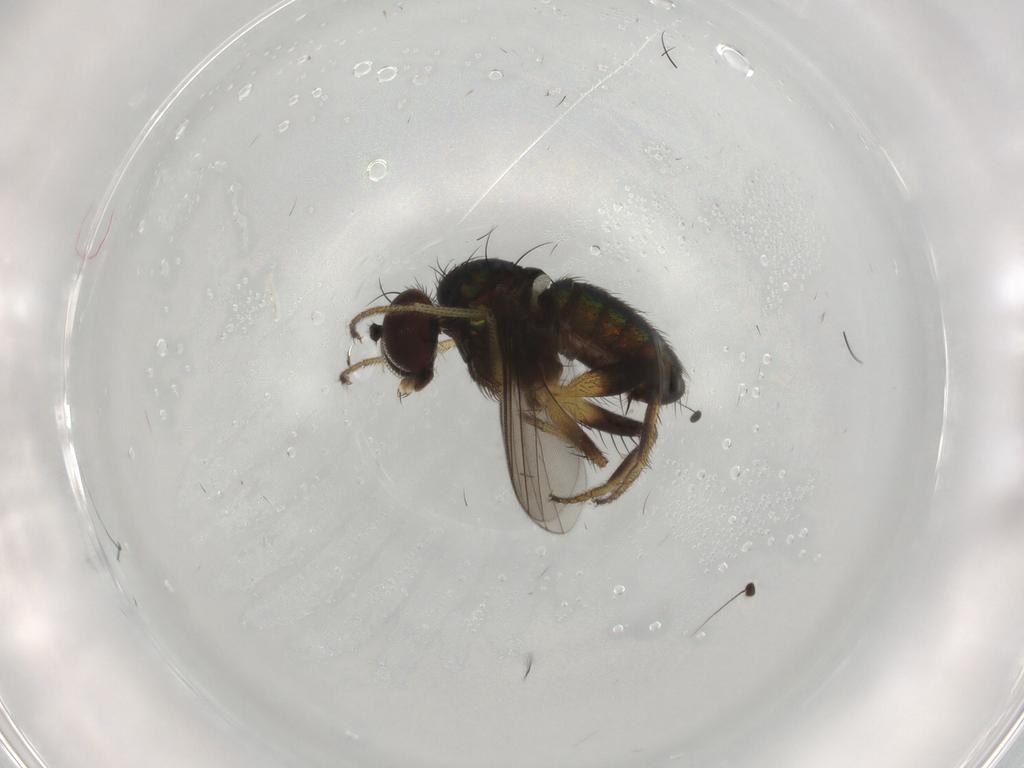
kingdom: Animalia
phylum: Arthropoda
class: Insecta
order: Diptera
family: Dolichopodidae
